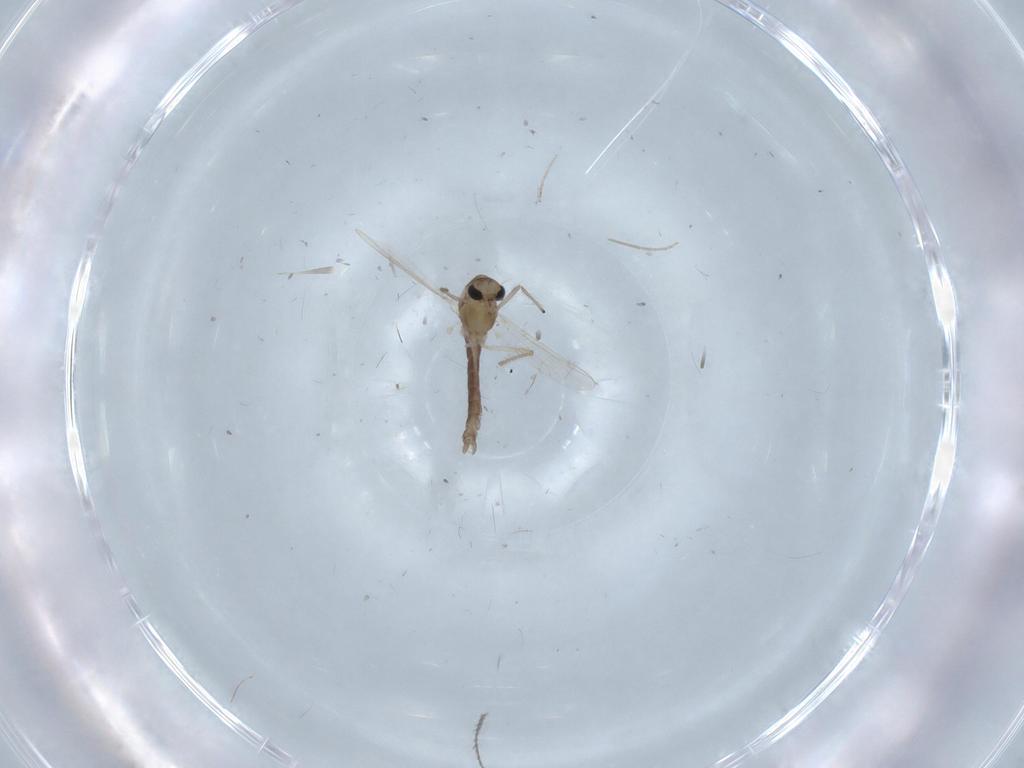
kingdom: Animalia
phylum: Arthropoda
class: Insecta
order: Diptera
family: Chironomidae
